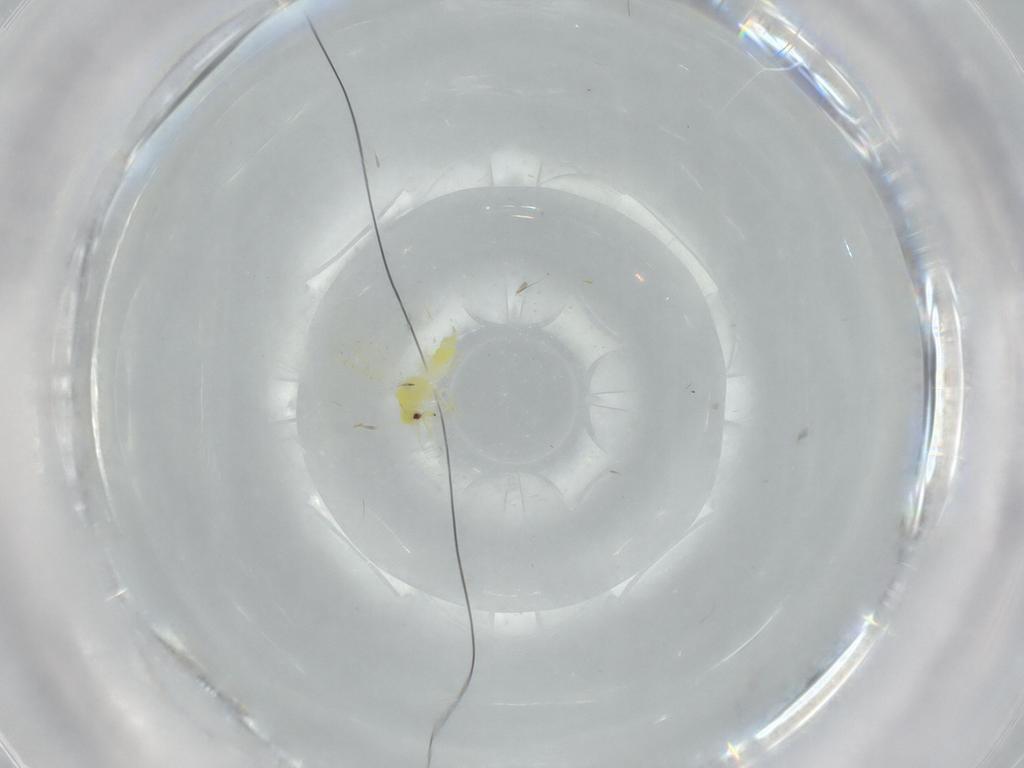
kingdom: Animalia
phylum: Arthropoda
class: Insecta
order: Hemiptera
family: Aleyrodidae
